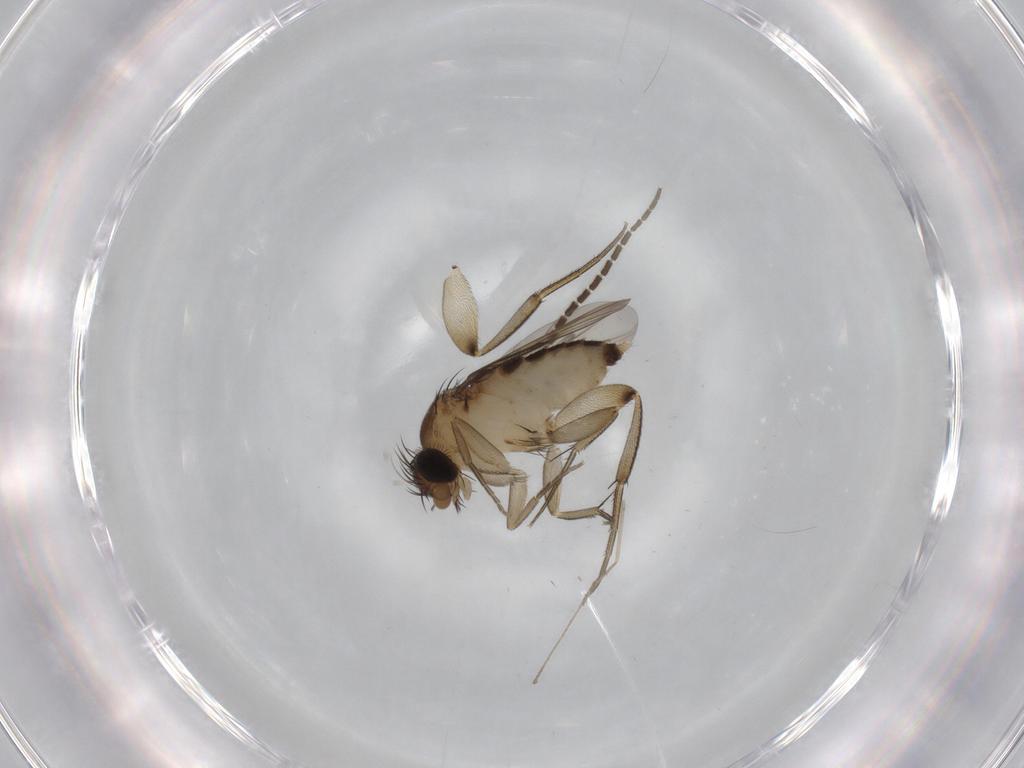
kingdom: Animalia
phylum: Arthropoda
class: Insecta
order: Diptera
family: Phoridae
